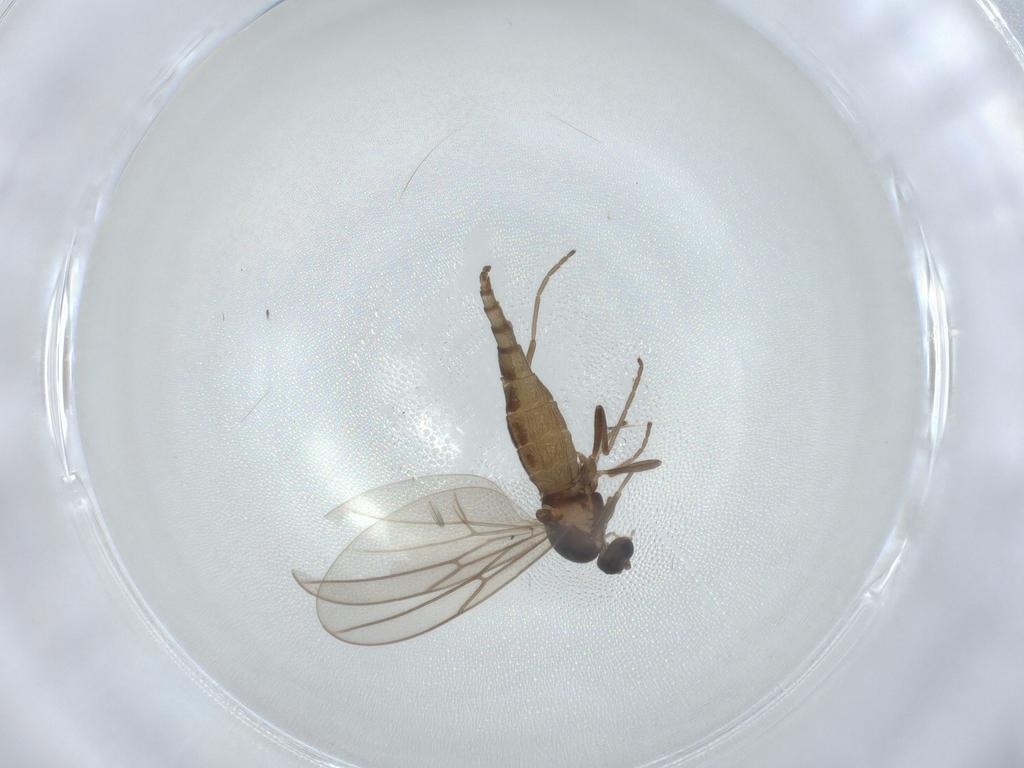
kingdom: Animalia
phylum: Arthropoda
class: Insecta
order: Diptera
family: Cecidomyiidae
